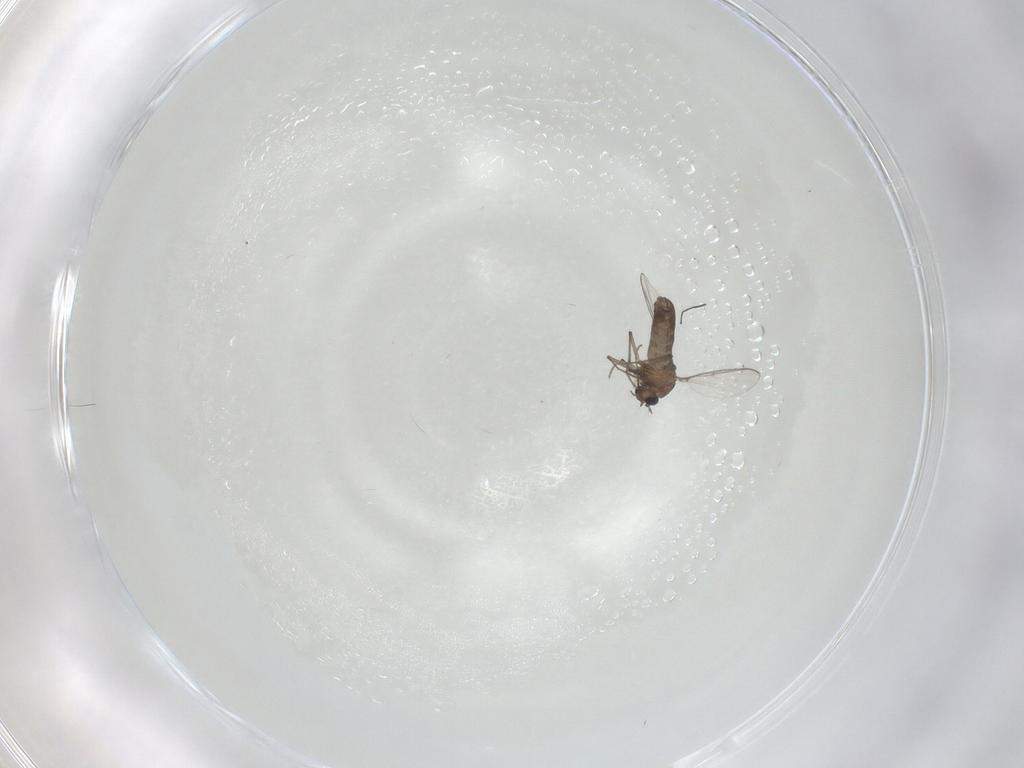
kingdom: Animalia
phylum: Arthropoda
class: Insecta
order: Diptera
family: Chironomidae
